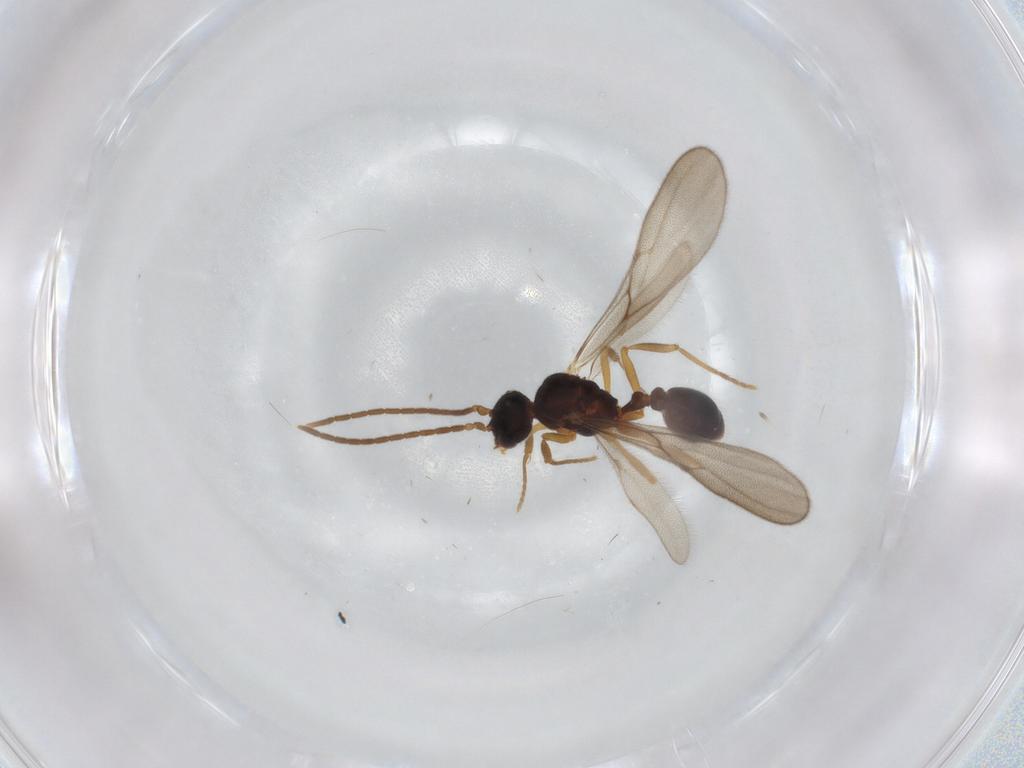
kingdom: Animalia
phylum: Arthropoda
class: Insecta
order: Hymenoptera
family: Formicidae
